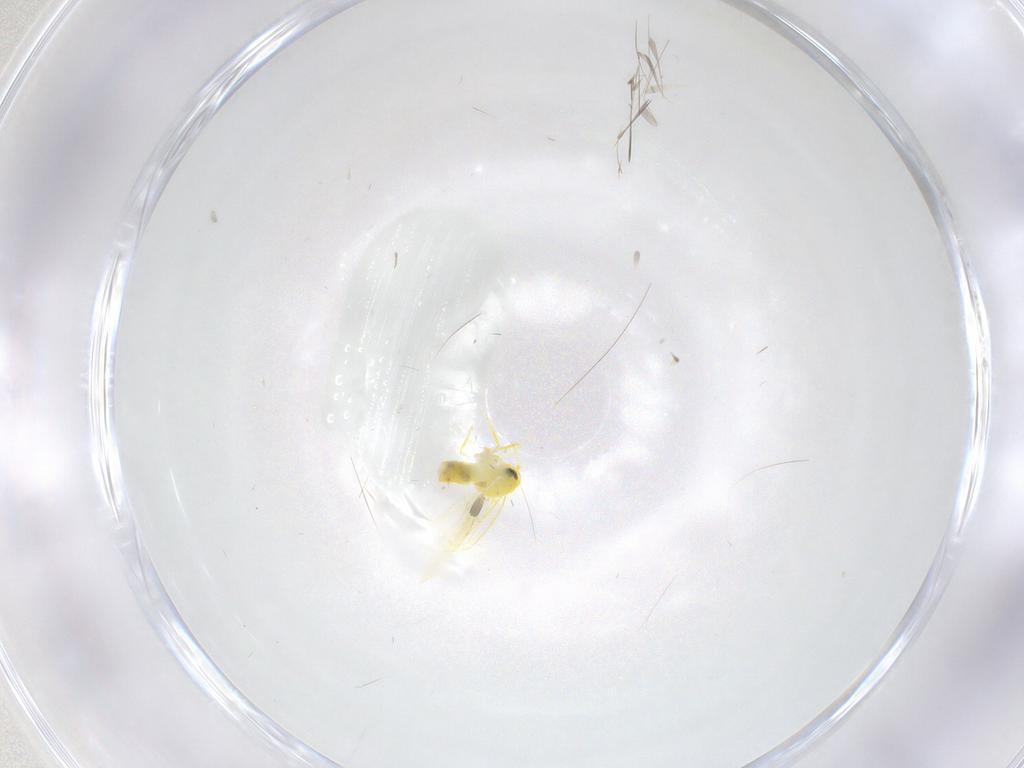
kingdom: Animalia
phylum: Arthropoda
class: Insecta
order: Hemiptera
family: Aleyrodidae
